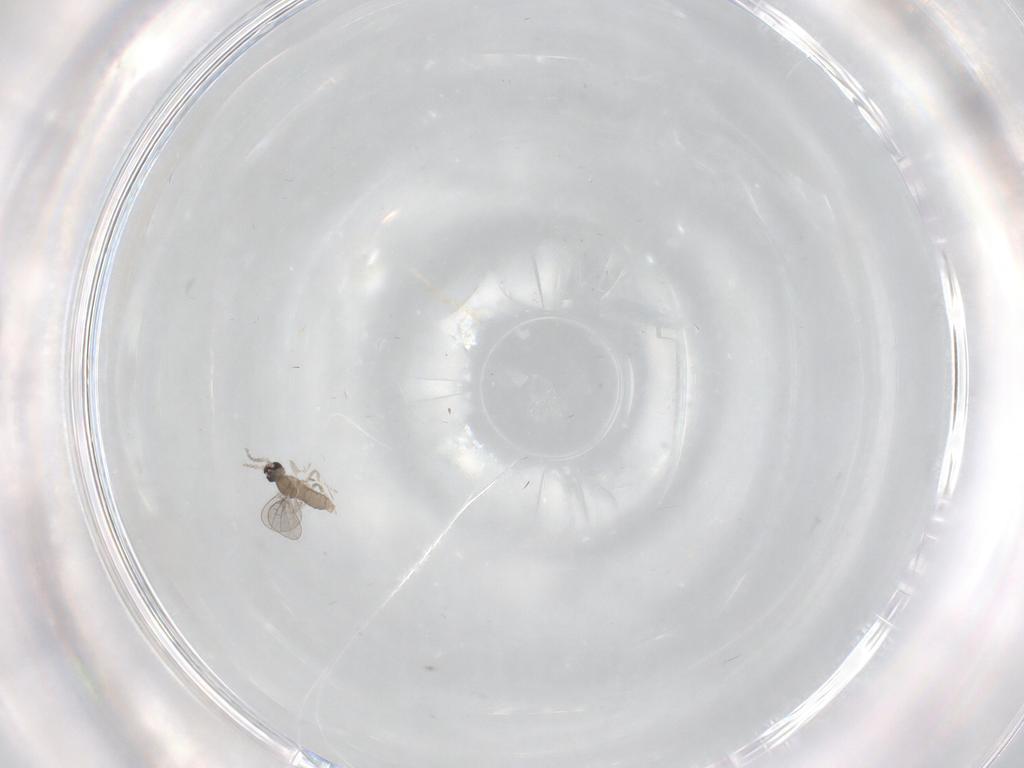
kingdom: Animalia
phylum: Arthropoda
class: Insecta
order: Diptera
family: Cecidomyiidae
